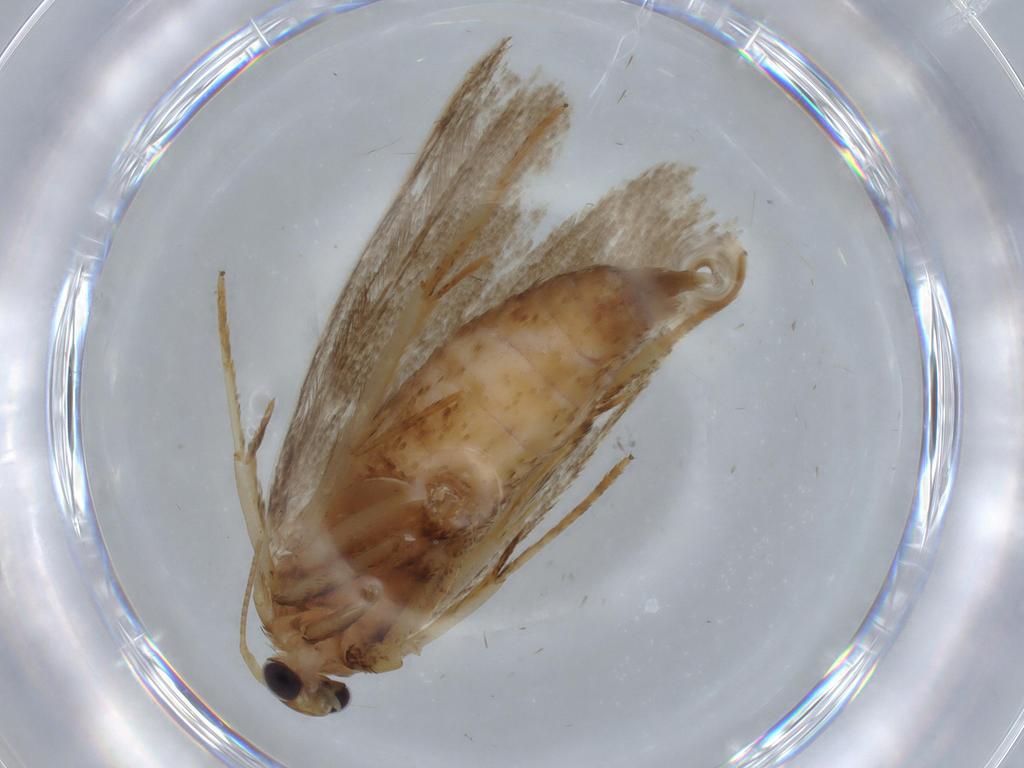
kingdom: Animalia
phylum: Arthropoda
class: Insecta
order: Lepidoptera
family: Blastobasidae
